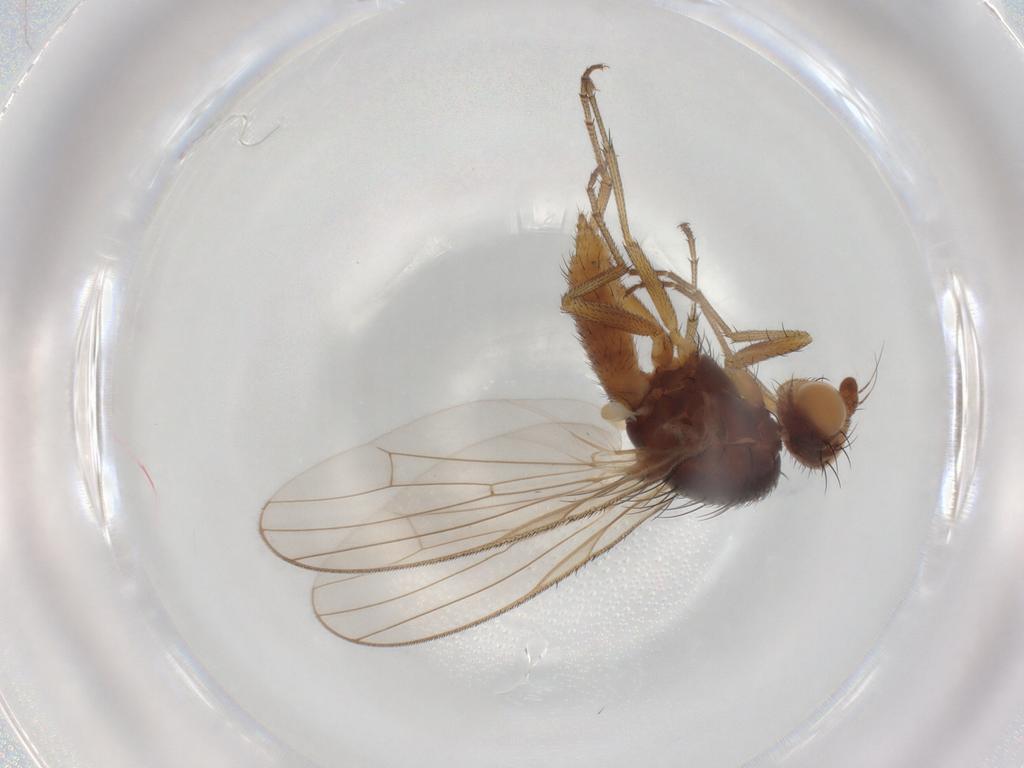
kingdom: Animalia
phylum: Arthropoda
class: Insecta
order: Diptera
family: Heleomyzidae
